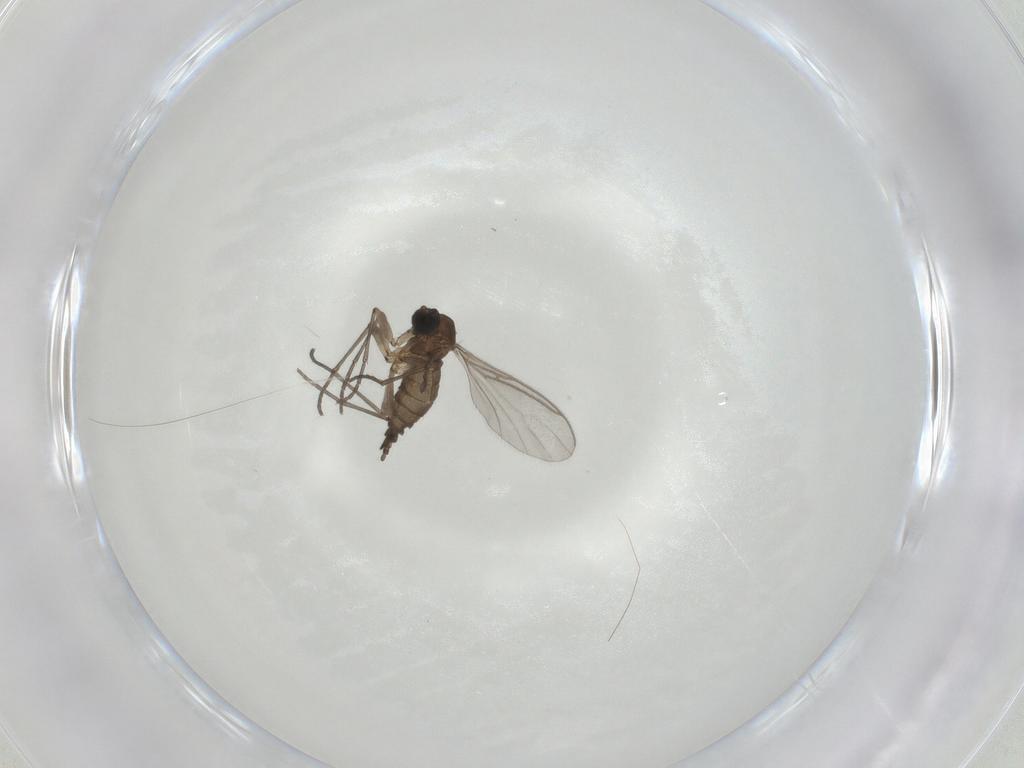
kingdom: Animalia
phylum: Arthropoda
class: Insecta
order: Diptera
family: Sciaridae
